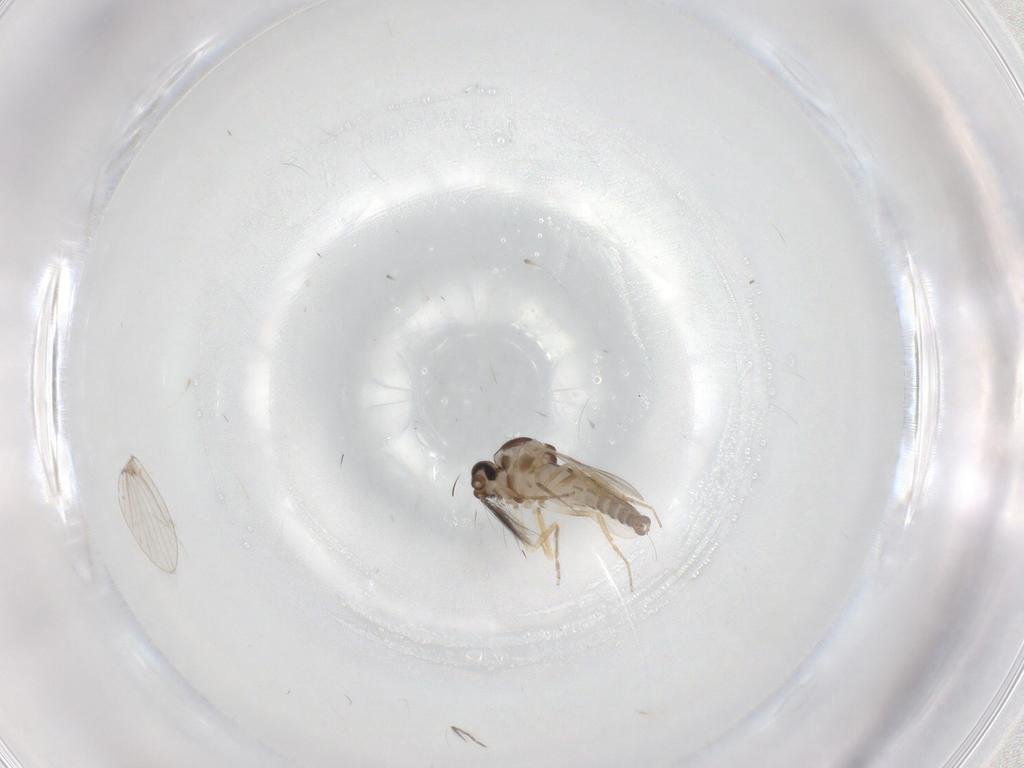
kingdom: Animalia
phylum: Arthropoda
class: Insecta
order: Diptera
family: Ceratopogonidae
